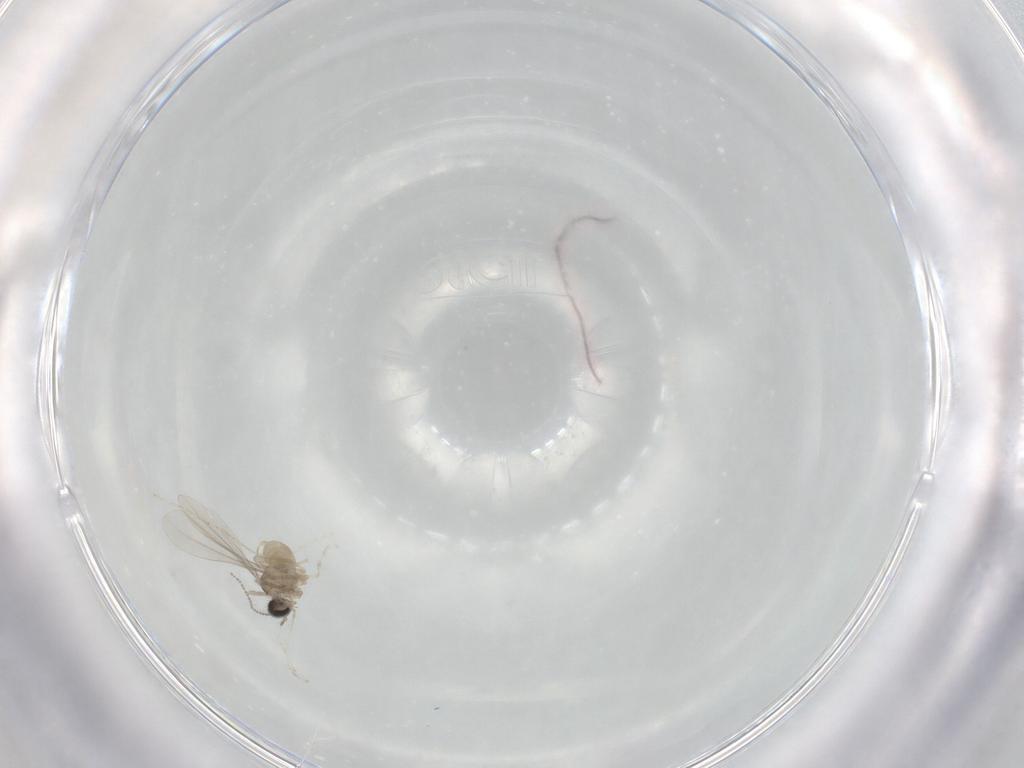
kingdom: Animalia
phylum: Arthropoda
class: Insecta
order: Diptera
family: Cecidomyiidae
